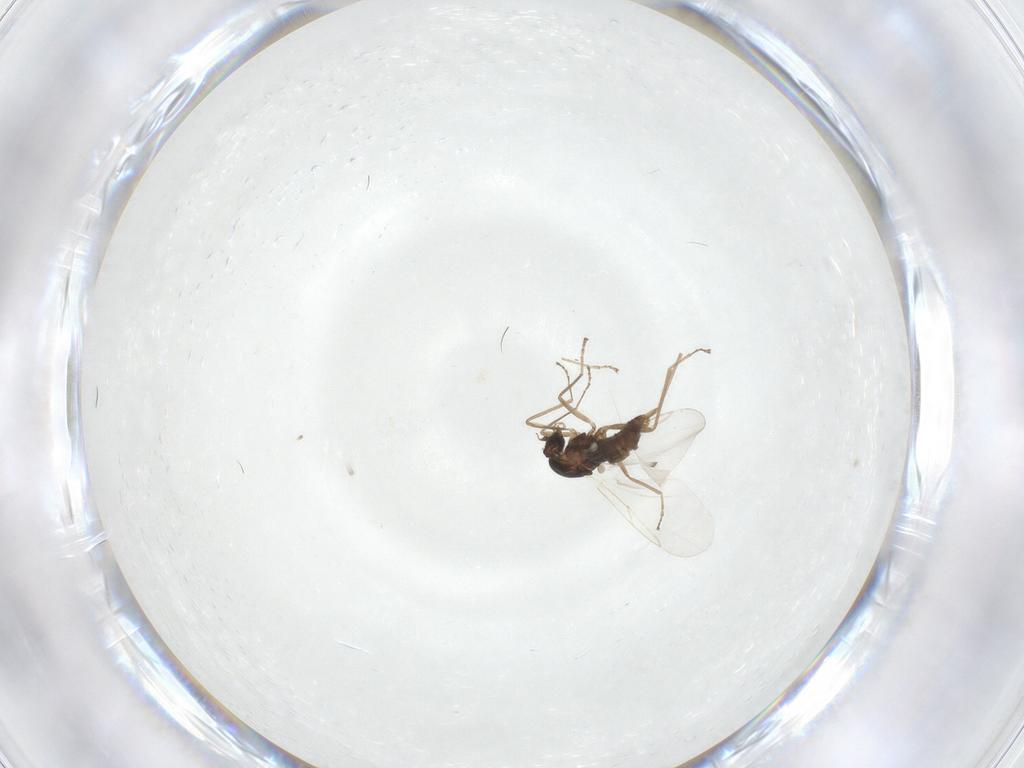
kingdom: Animalia
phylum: Arthropoda
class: Insecta
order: Diptera
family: Cecidomyiidae
